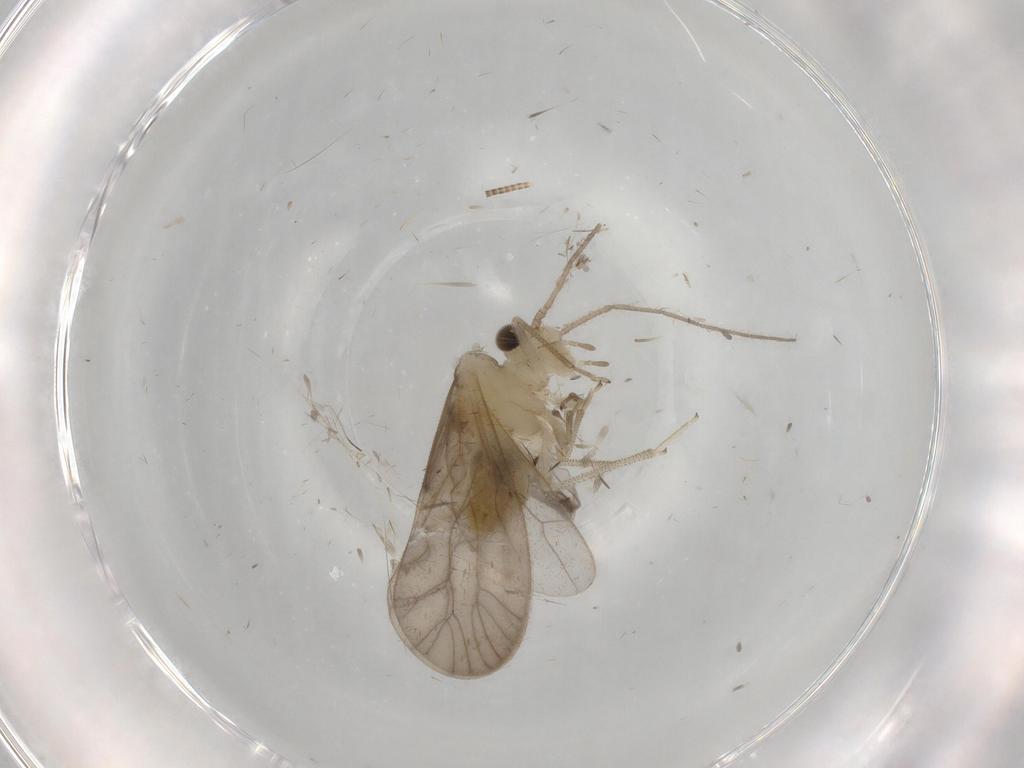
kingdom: Animalia
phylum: Arthropoda
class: Insecta
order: Psocodea
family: Caeciliusidae
